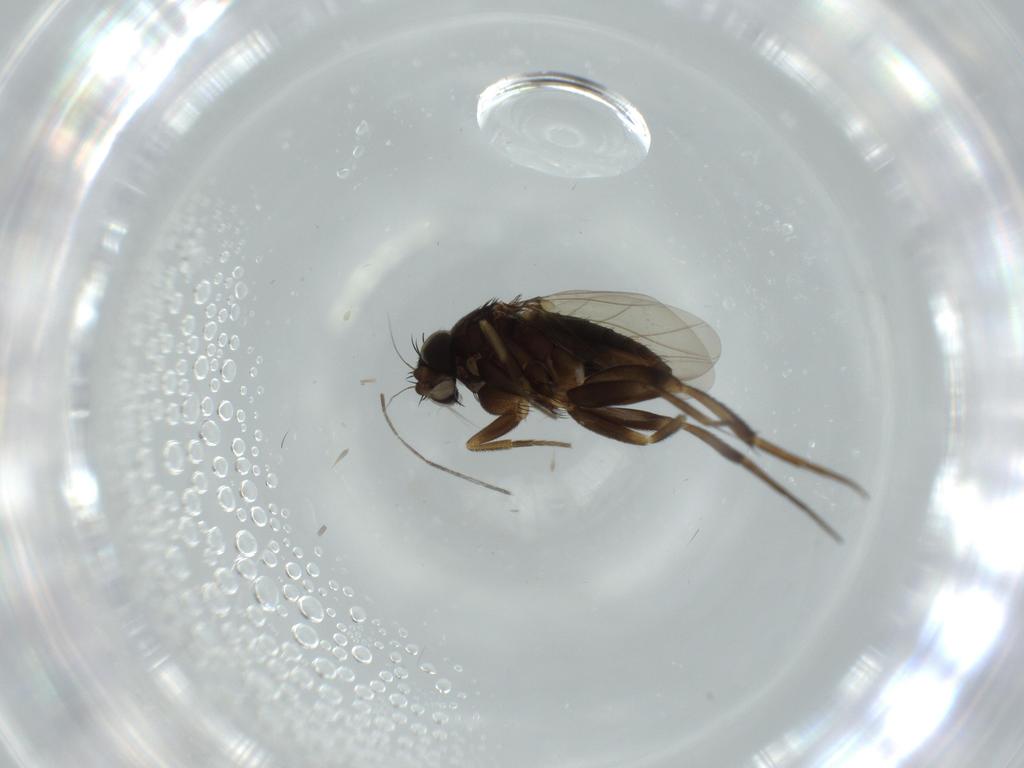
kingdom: Animalia
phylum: Arthropoda
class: Insecta
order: Diptera
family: Phoridae
